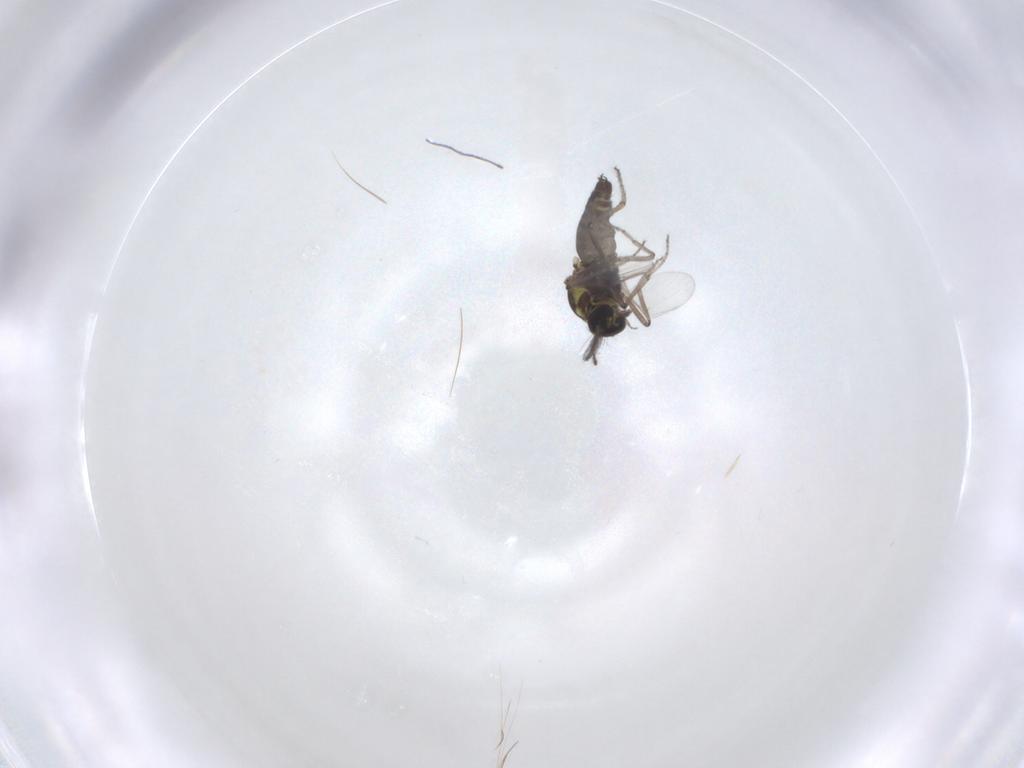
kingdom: Animalia
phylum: Arthropoda
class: Insecta
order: Diptera
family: Ceratopogonidae
